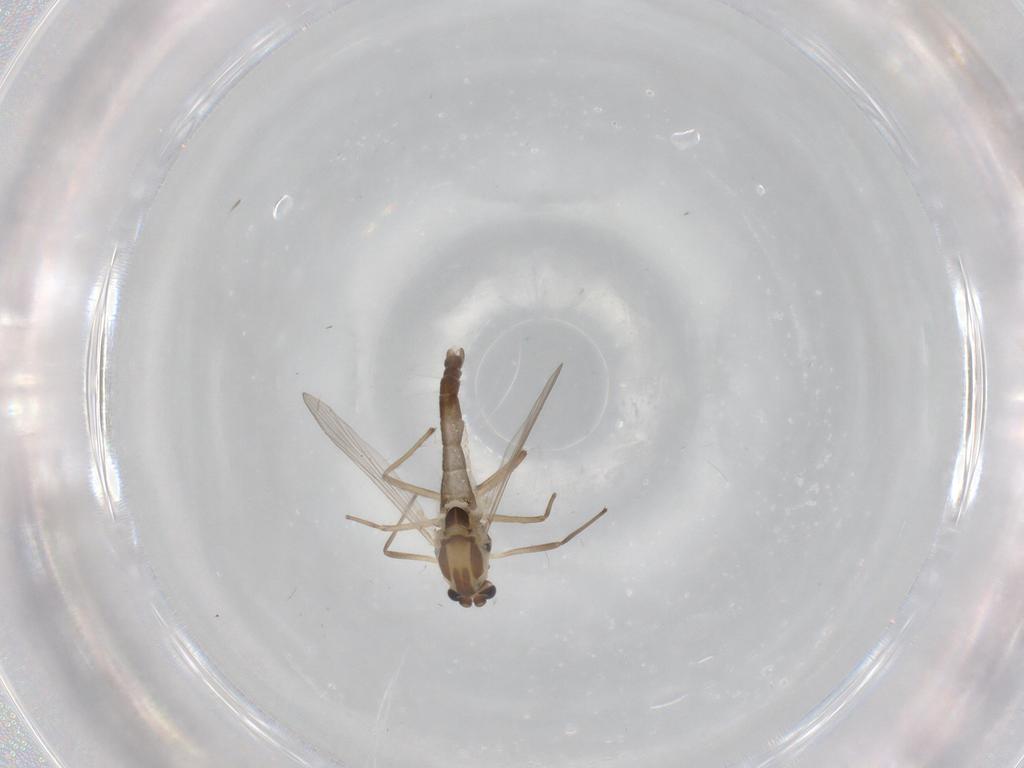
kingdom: Animalia
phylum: Arthropoda
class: Insecta
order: Diptera
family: Chironomidae
